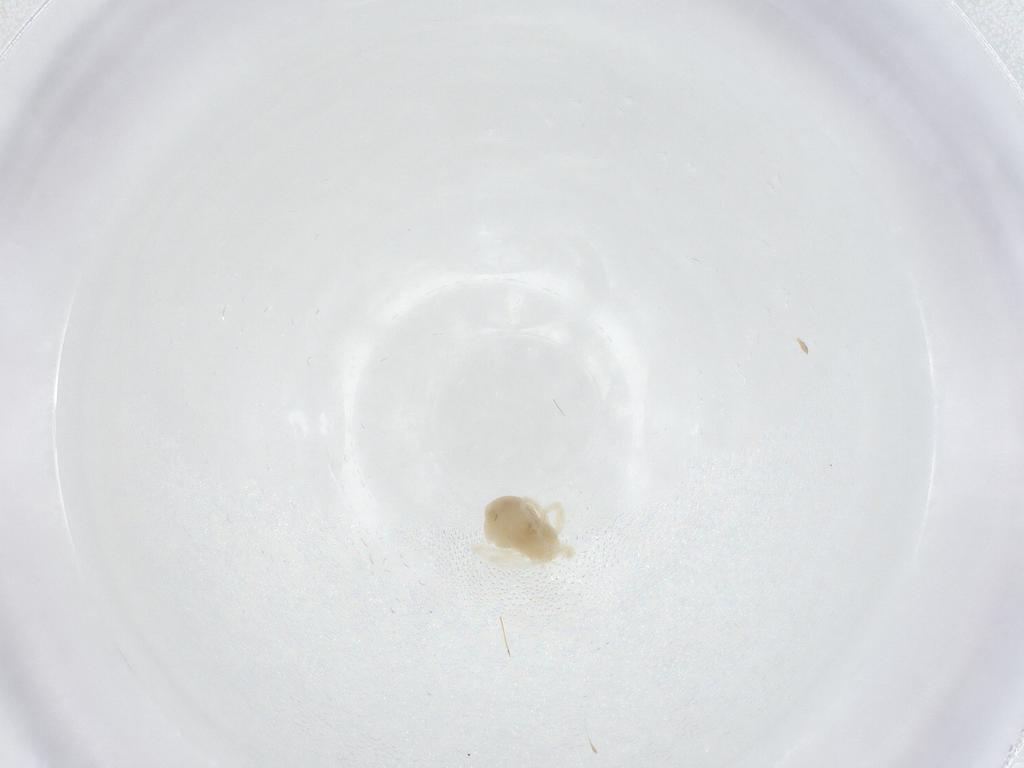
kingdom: Animalia
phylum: Arthropoda
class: Arachnida
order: Trombidiformes
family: Anystidae
